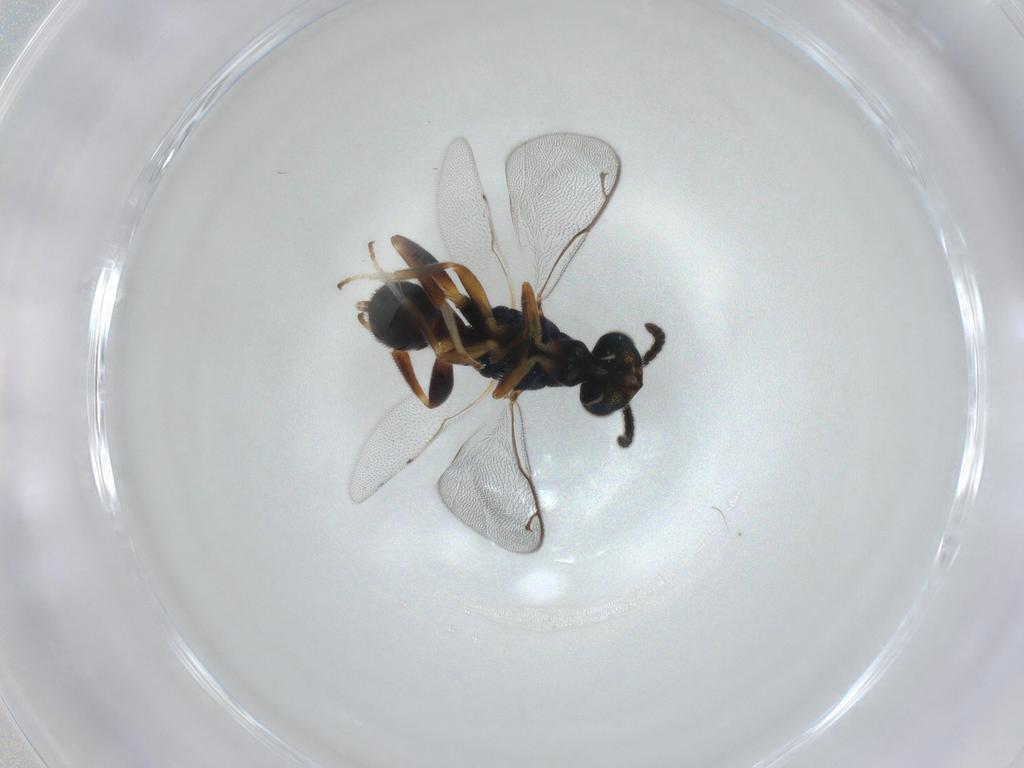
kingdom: Animalia
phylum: Arthropoda
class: Insecta
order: Hymenoptera
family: Cleonyminae
